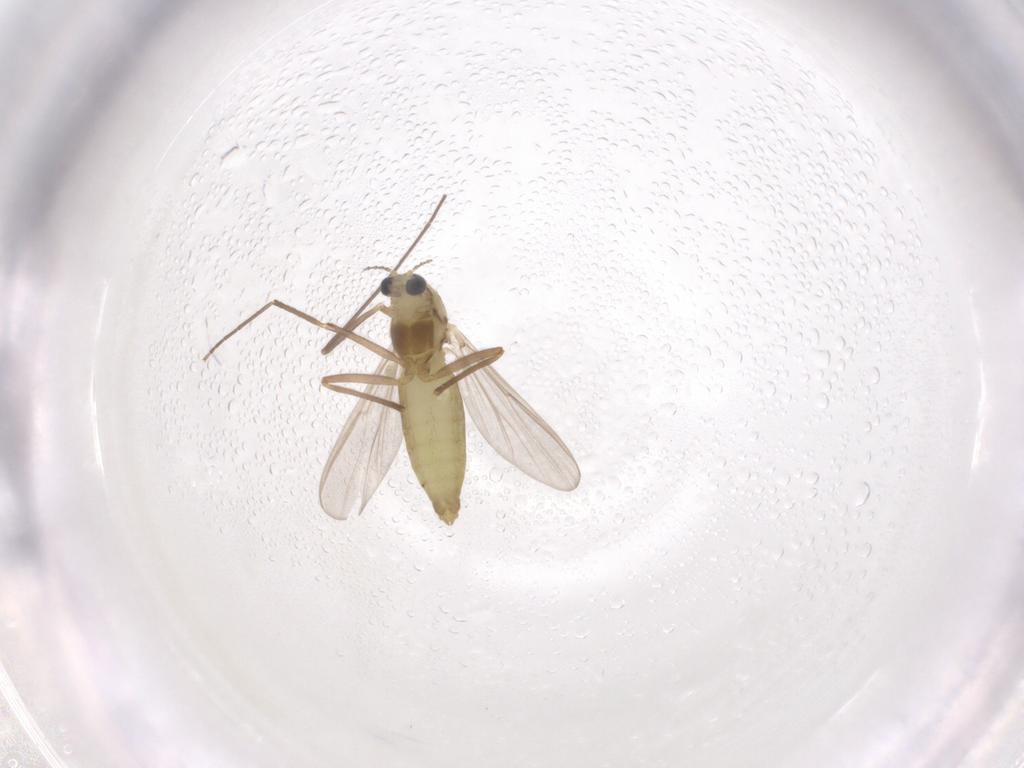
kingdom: Animalia
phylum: Arthropoda
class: Insecta
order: Diptera
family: Chironomidae
